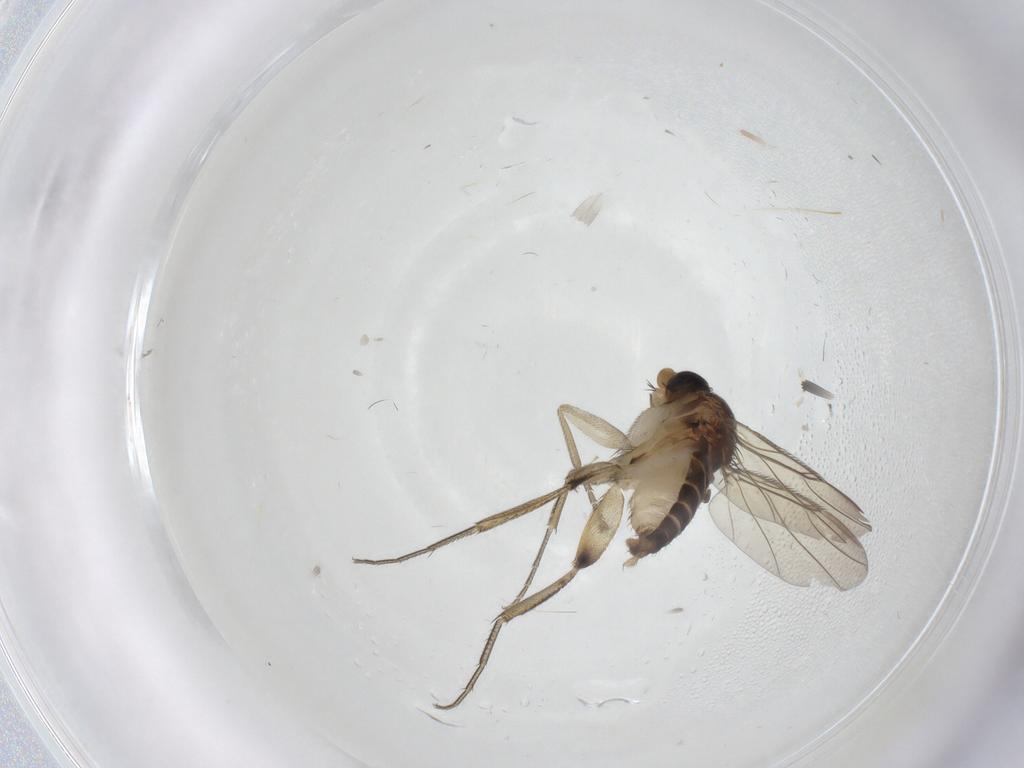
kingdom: Animalia
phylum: Arthropoda
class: Insecta
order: Diptera
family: Phoridae
